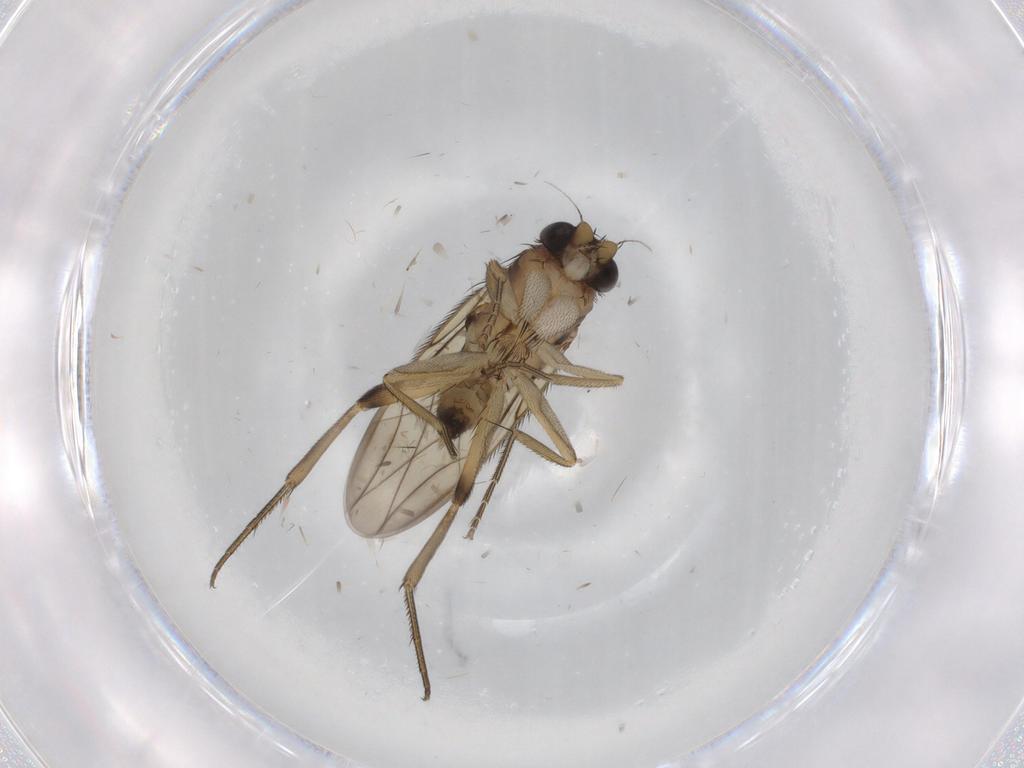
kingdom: Animalia
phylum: Arthropoda
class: Insecta
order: Diptera
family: Phoridae
